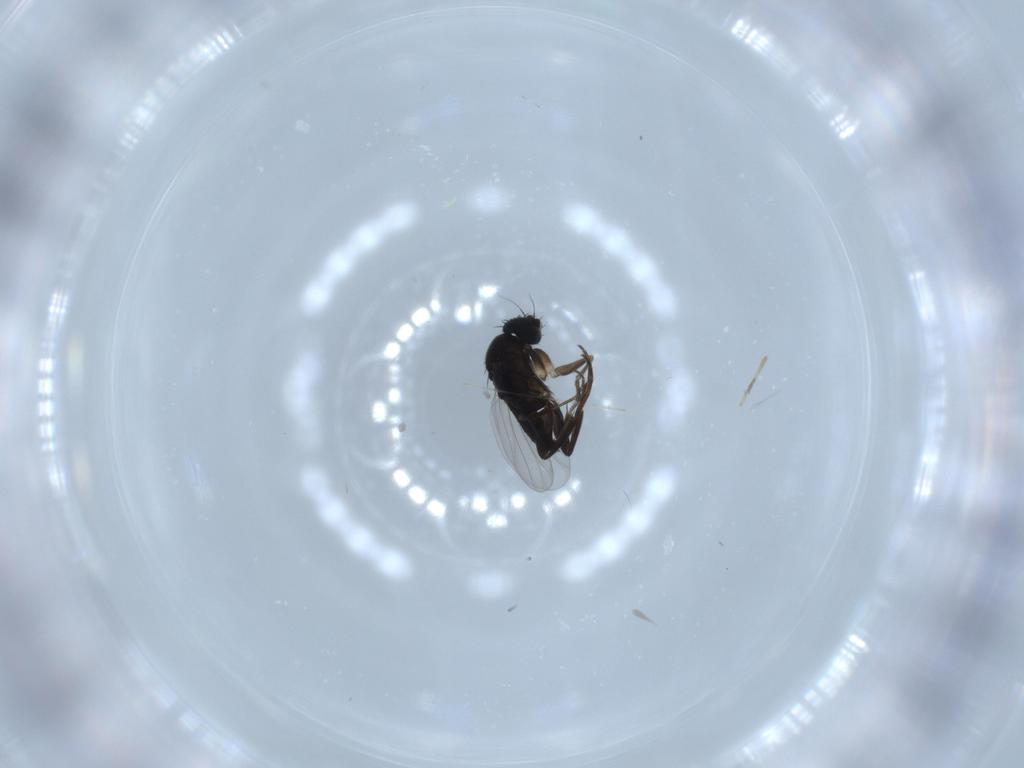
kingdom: Animalia
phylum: Arthropoda
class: Insecta
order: Diptera
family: Phoridae
